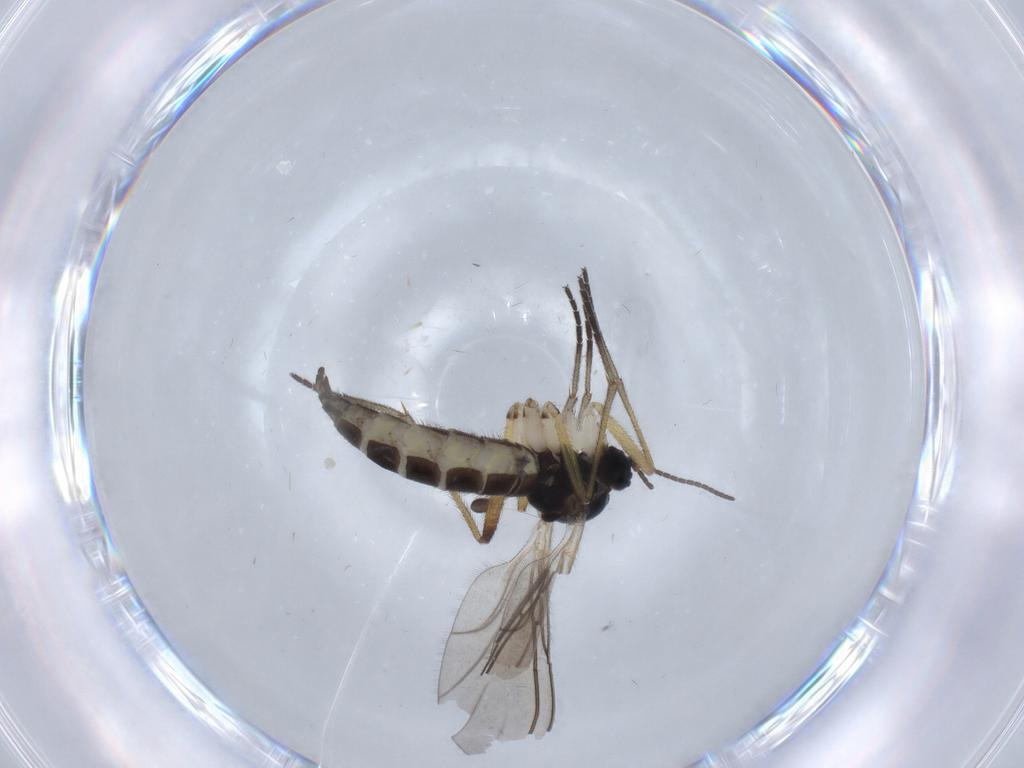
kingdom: Animalia
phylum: Arthropoda
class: Insecta
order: Diptera
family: Sciaridae
